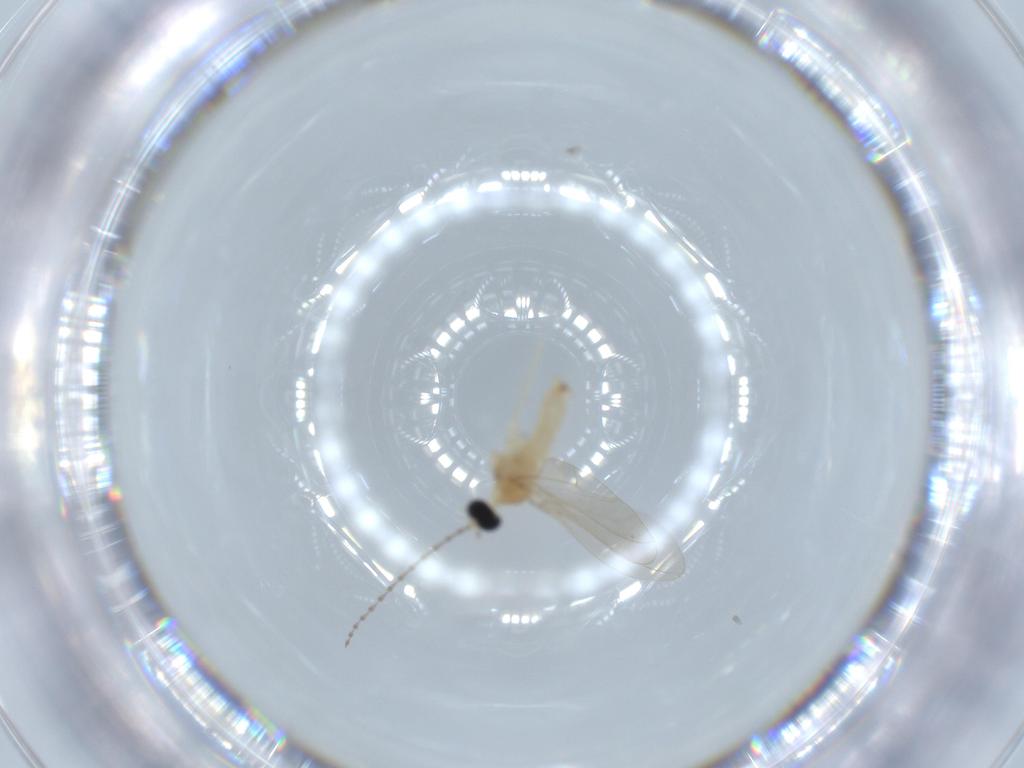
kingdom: Animalia
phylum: Arthropoda
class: Insecta
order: Diptera
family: Cecidomyiidae
